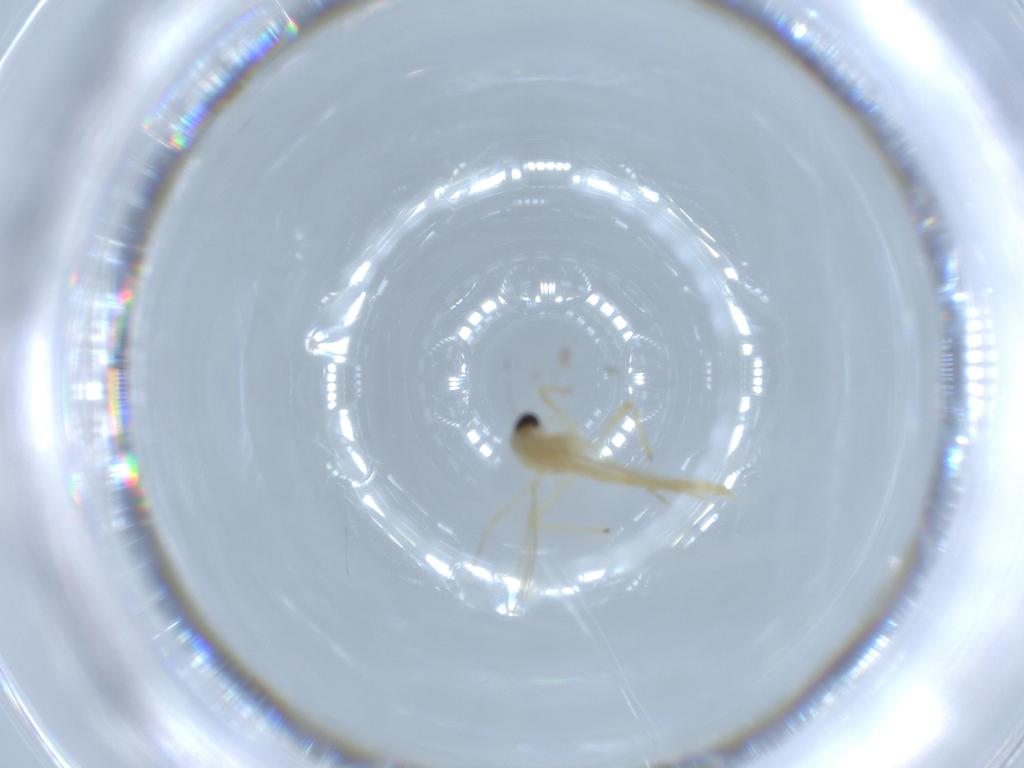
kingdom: Animalia
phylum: Arthropoda
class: Insecta
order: Diptera
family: Chironomidae
